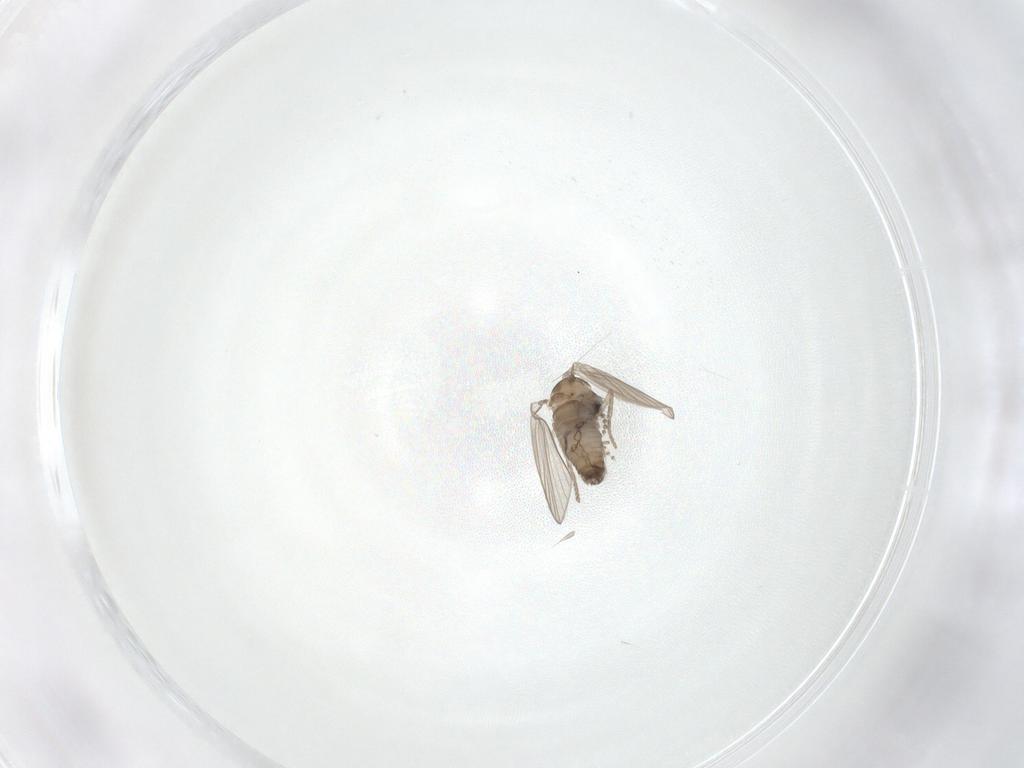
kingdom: Animalia
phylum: Arthropoda
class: Insecta
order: Diptera
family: Psychodidae
